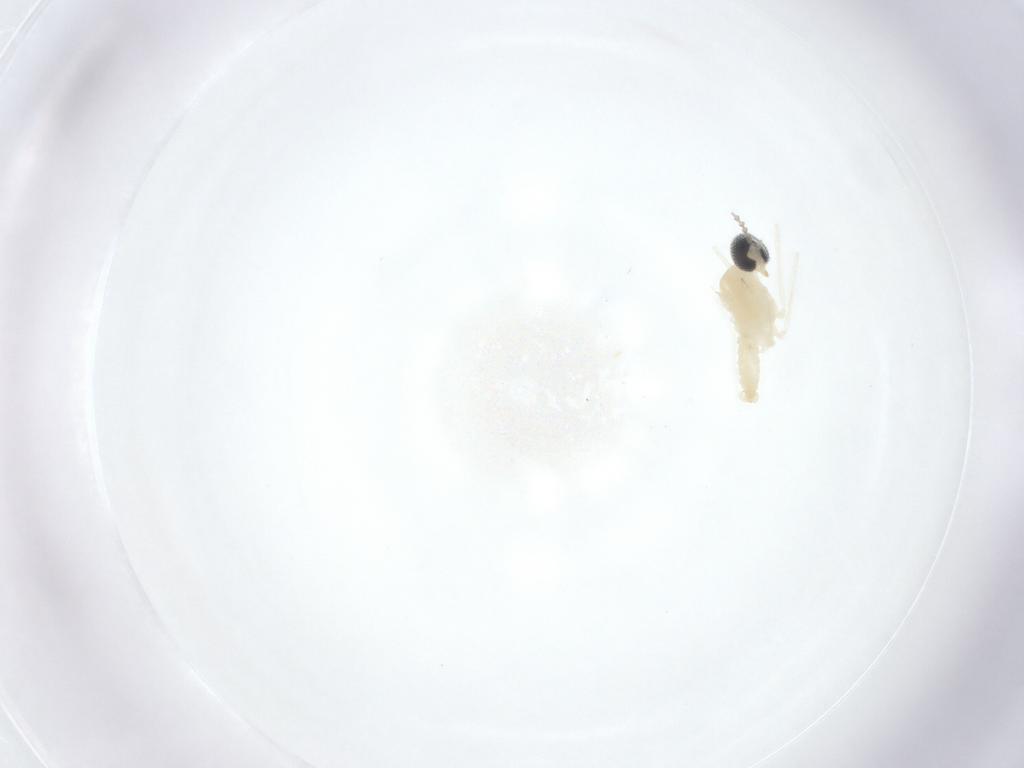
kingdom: Animalia
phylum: Arthropoda
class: Insecta
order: Diptera
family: Cecidomyiidae
